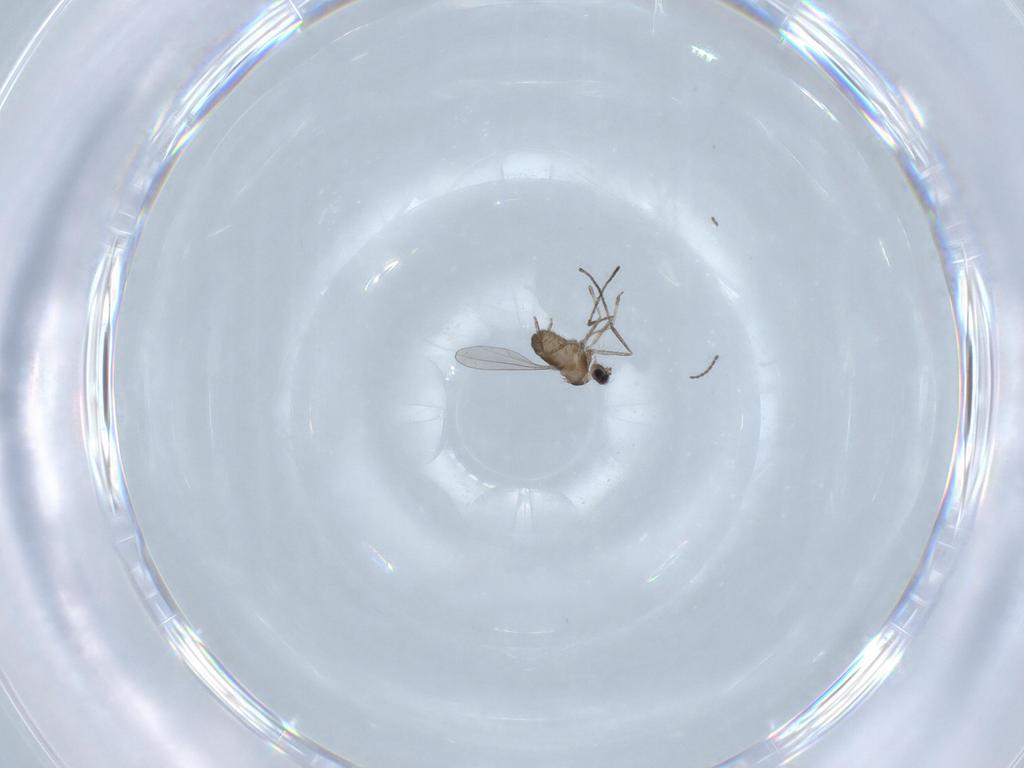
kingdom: Animalia
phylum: Arthropoda
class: Insecta
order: Diptera
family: Cecidomyiidae
